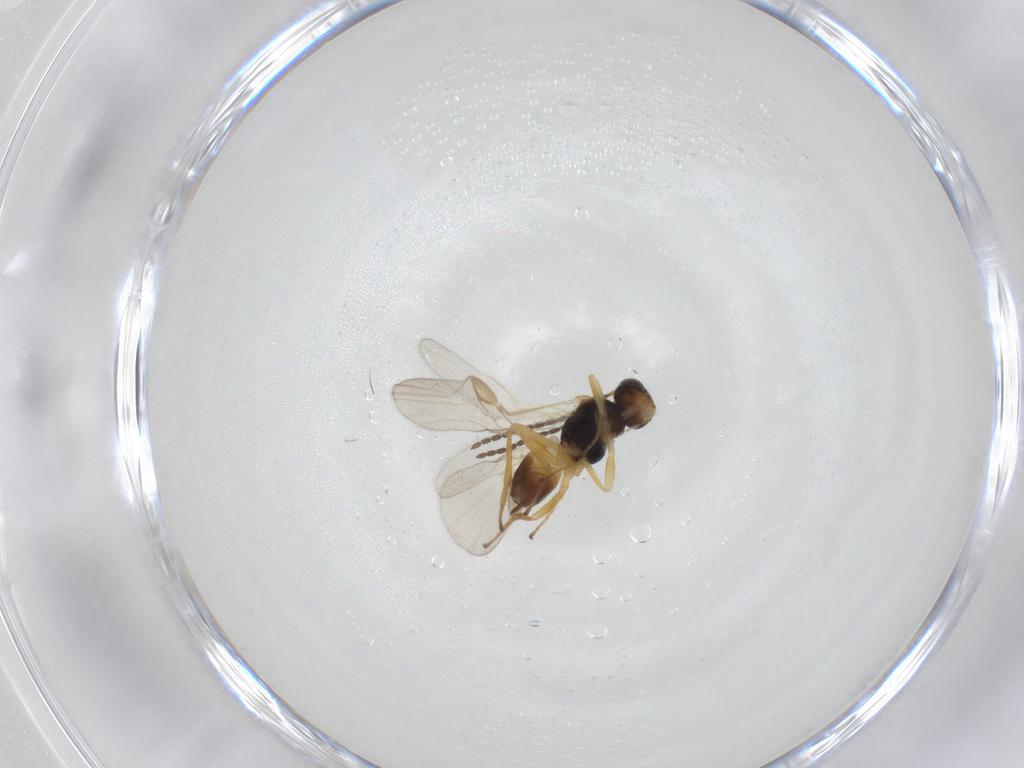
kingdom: Animalia
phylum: Arthropoda
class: Insecta
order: Hymenoptera
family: Braconidae
